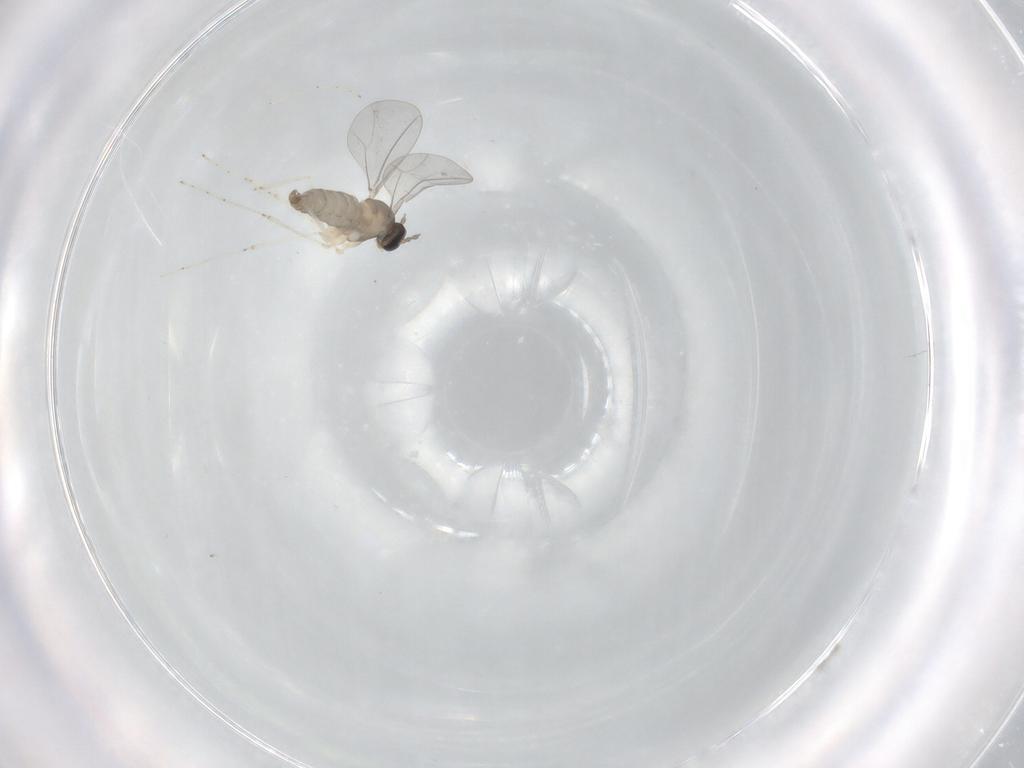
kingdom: Animalia
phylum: Arthropoda
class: Insecta
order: Diptera
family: Cecidomyiidae
